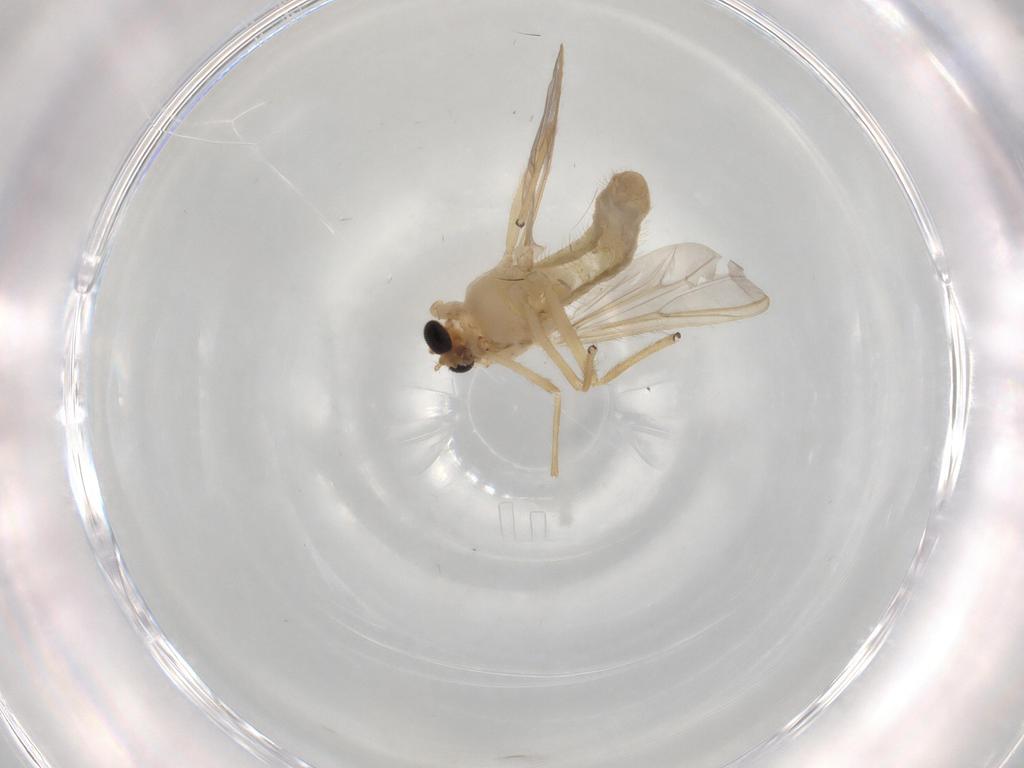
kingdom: Animalia
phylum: Arthropoda
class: Insecta
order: Diptera
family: Chironomidae
